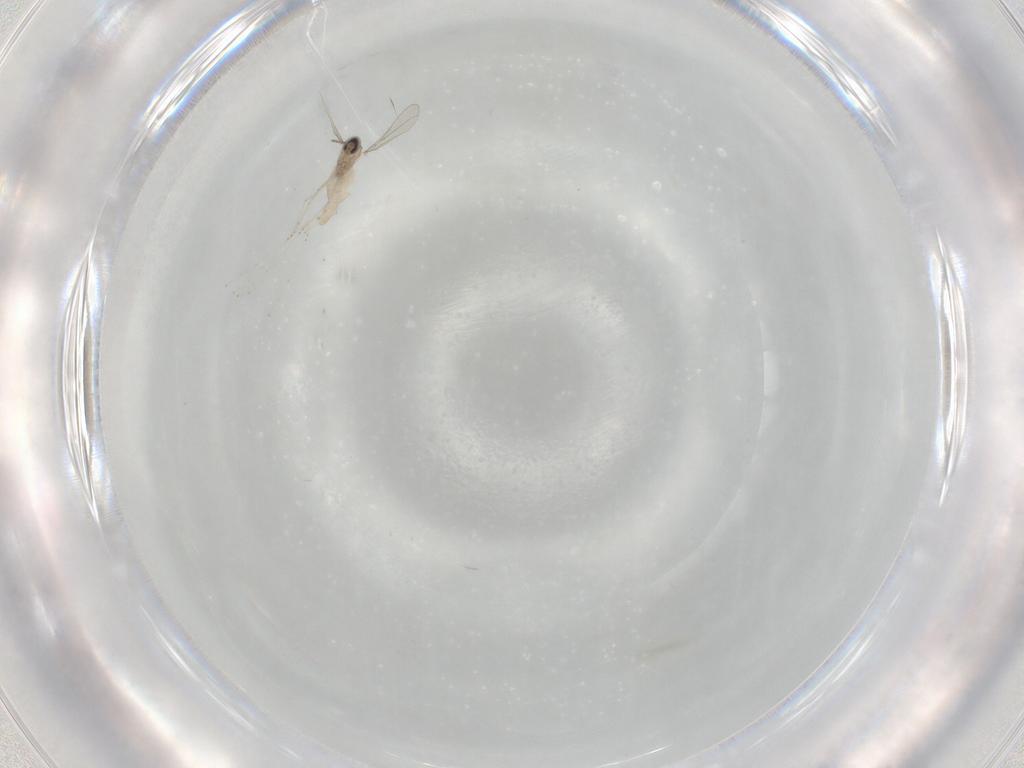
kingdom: Animalia
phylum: Arthropoda
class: Insecta
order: Diptera
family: Cecidomyiidae
